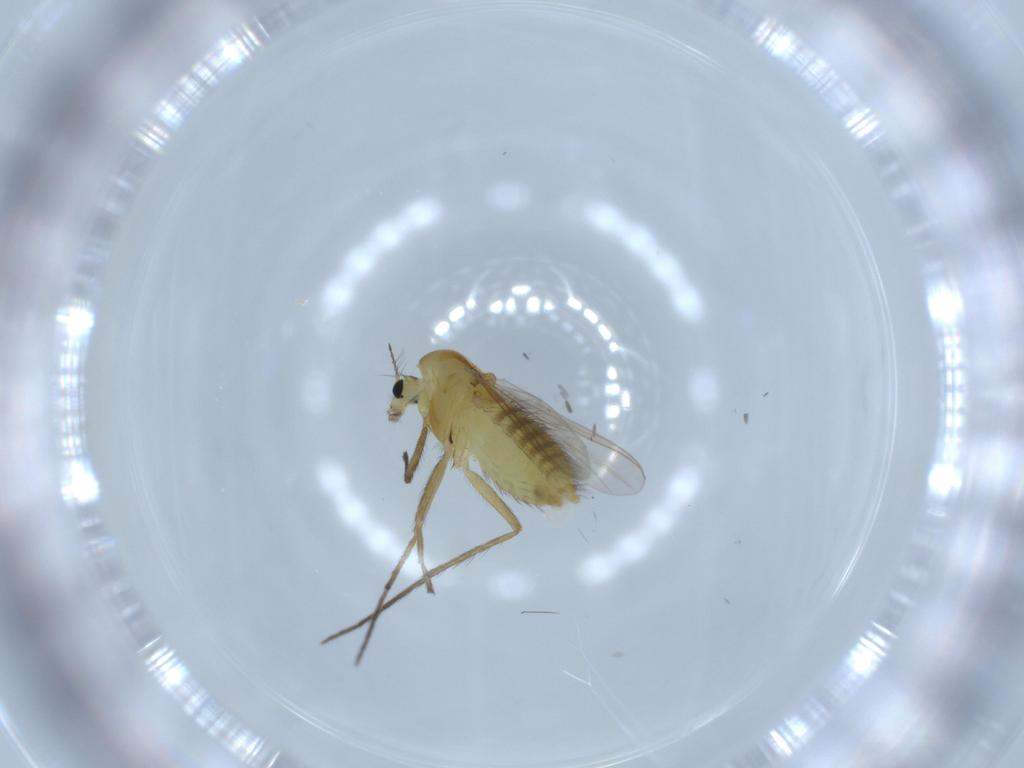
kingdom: Animalia
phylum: Arthropoda
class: Insecta
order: Diptera
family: Chironomidae
